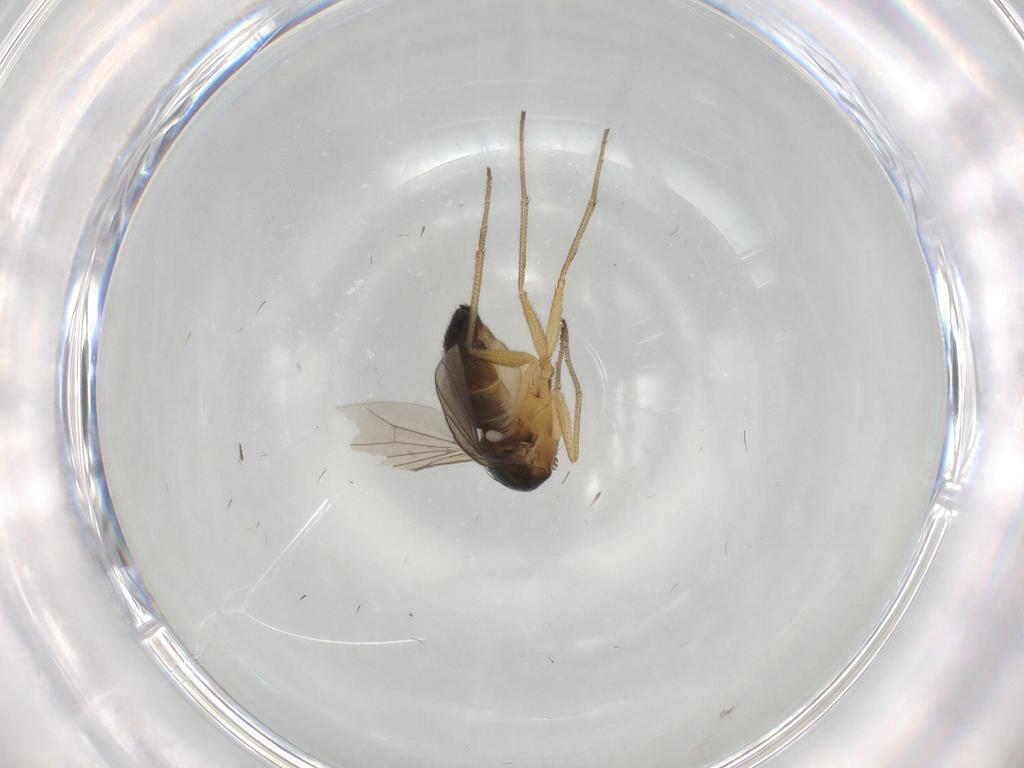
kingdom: Animalia
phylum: Arthropoda
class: Insecta
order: Diptera
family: Dolichopodidae
